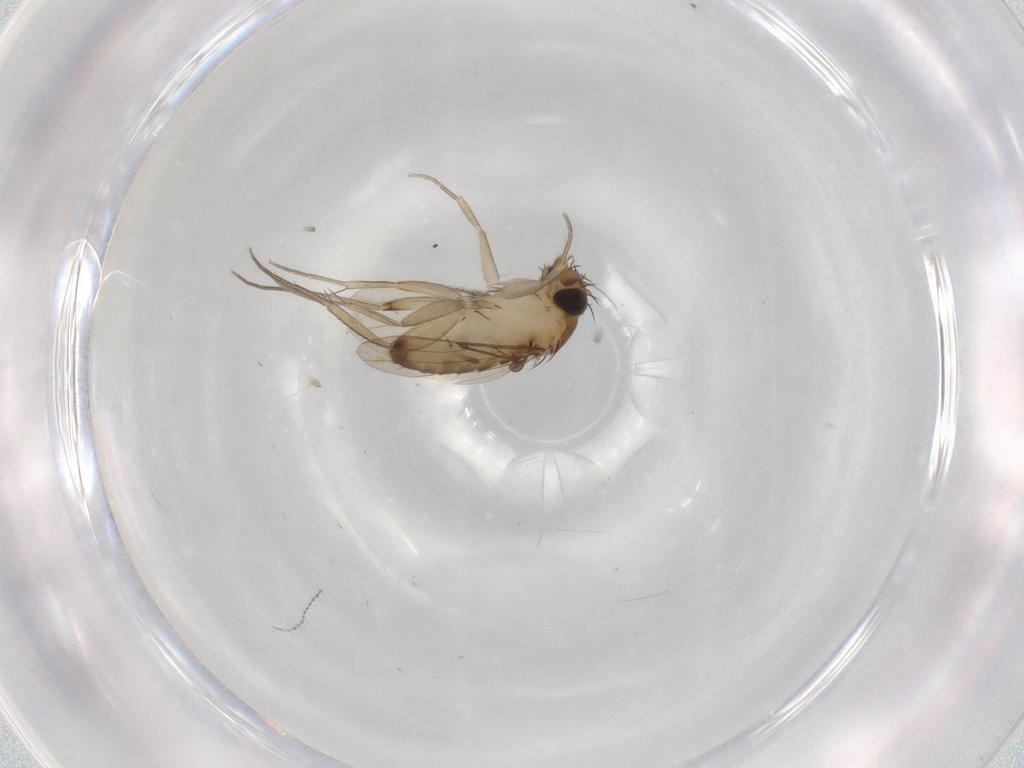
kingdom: Animalia
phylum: Arthropoda
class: Insecta
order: Diptera
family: Phoridae
